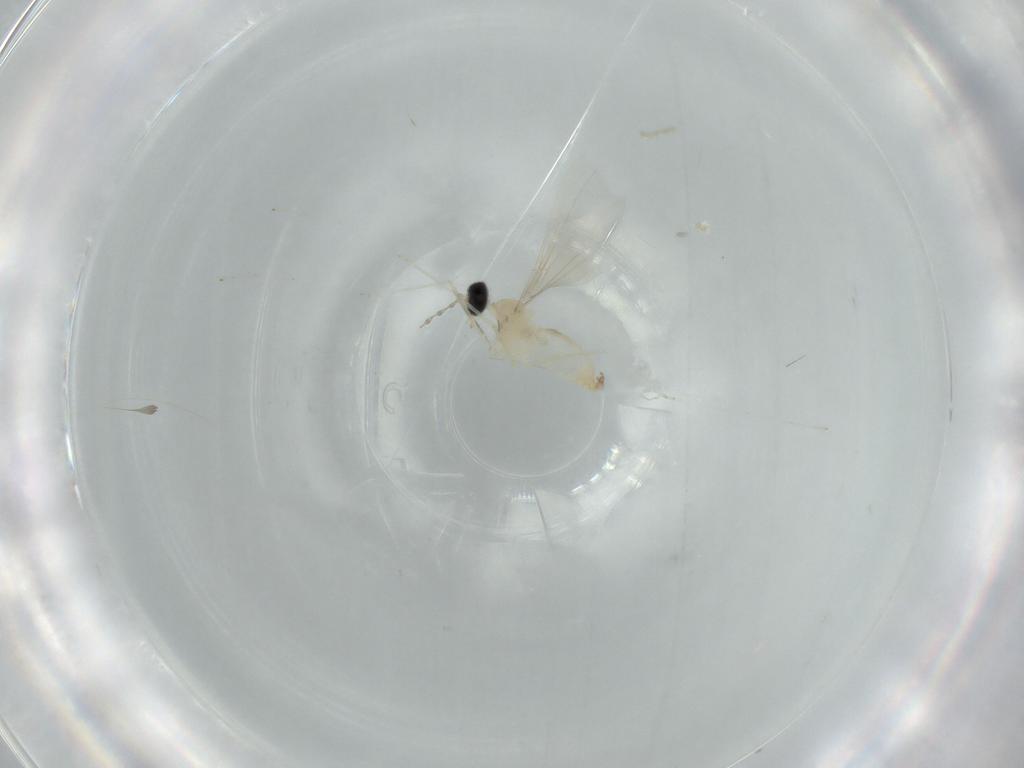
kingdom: Animalia
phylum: Arthropoda
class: Insecta
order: Diptera
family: Cecidomyiidae
